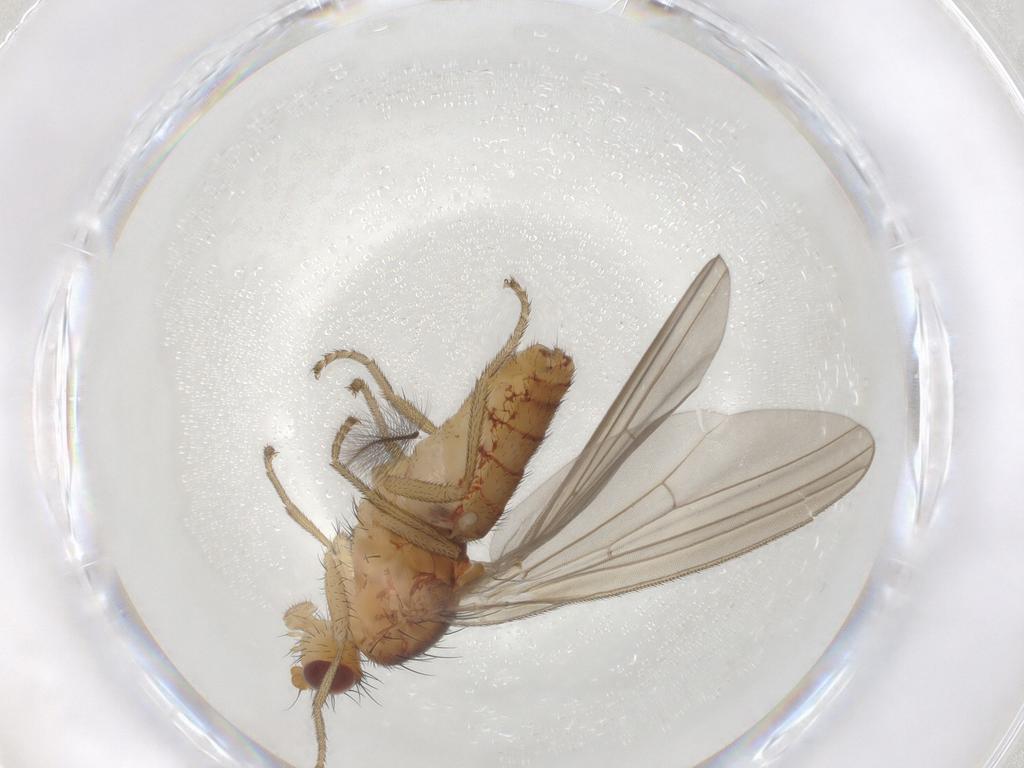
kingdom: Animalia
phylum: Arthropoda
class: Insecta
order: Diptera
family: Natalimyzidae
